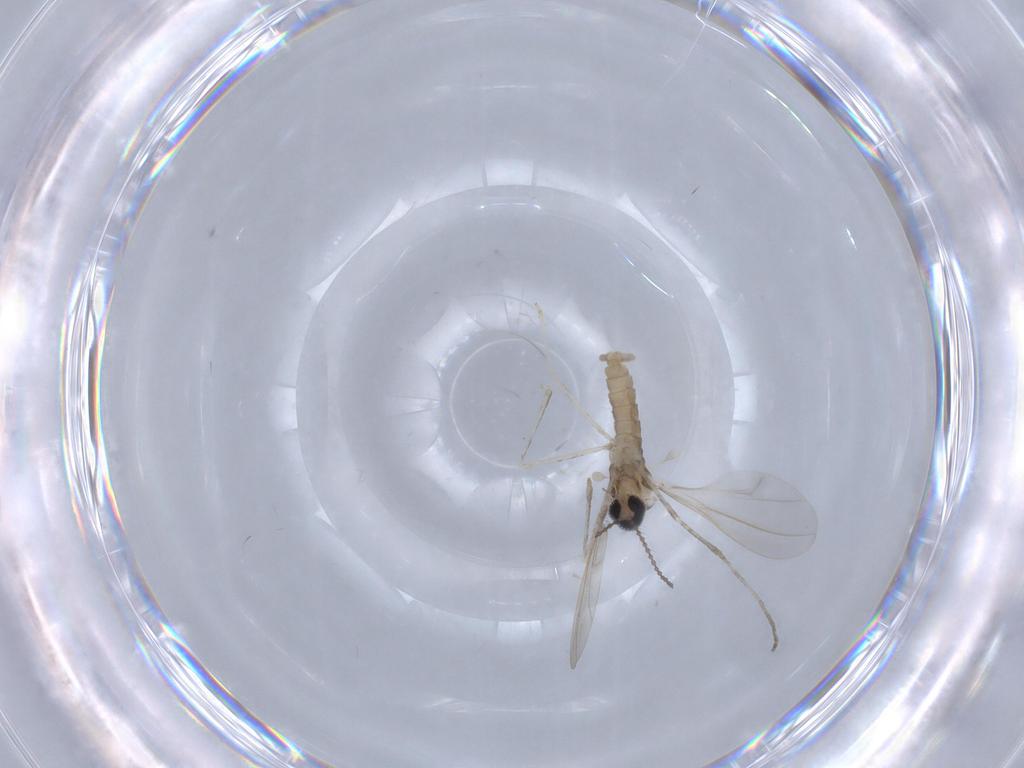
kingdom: Animalia
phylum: Arthropoda
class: Insecta
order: Diptera
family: Cecidomyiidae
